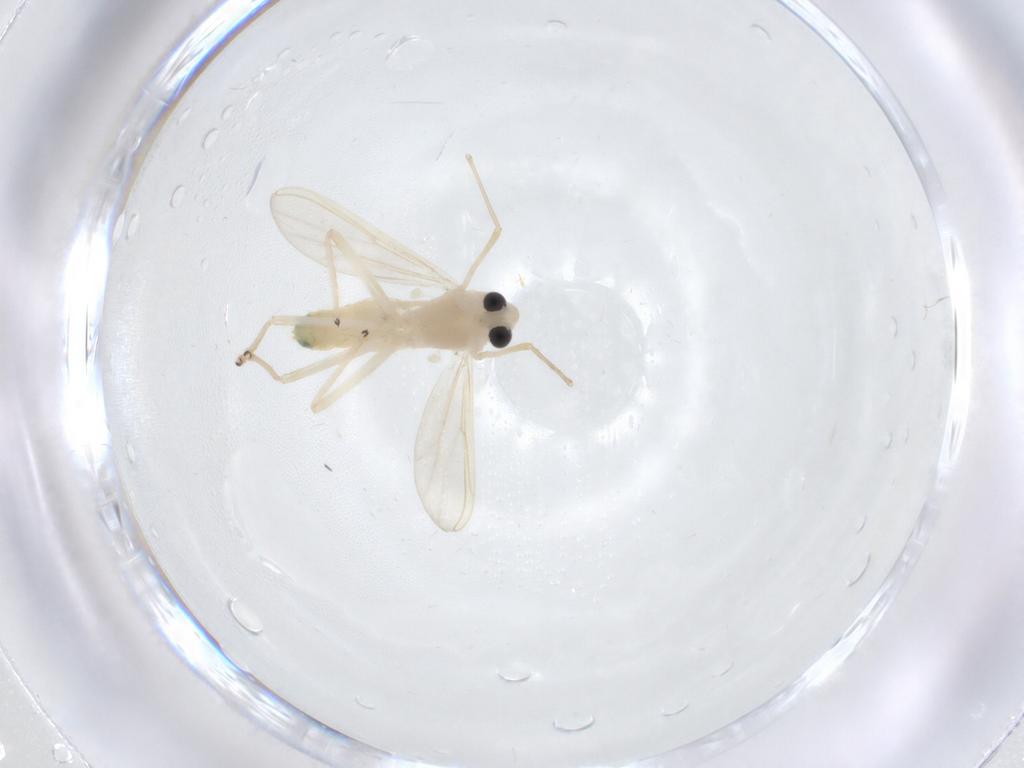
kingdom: Animalia
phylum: Arthropoda
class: Insecta
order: Diptera
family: Chironomidae
